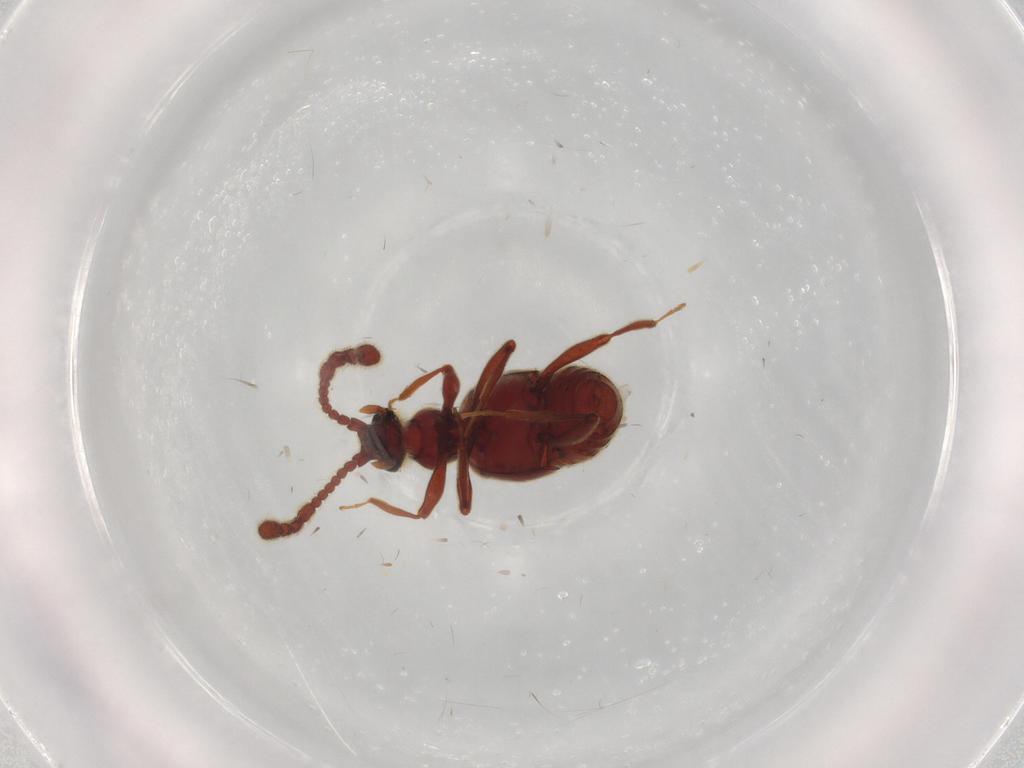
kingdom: Animalia
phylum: Arthropoda
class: Insecta
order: Coleoptera
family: Staphylinidae
